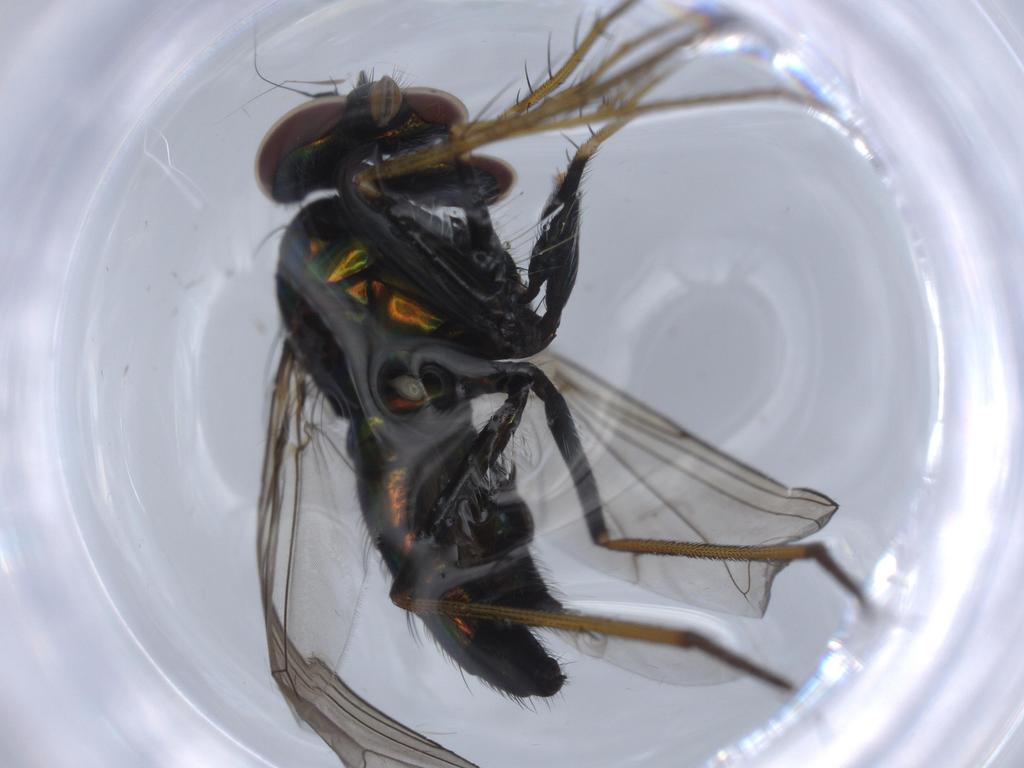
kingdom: Animalia
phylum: Arthropoda
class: Insecta
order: Diptera
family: Dolichopodidae
